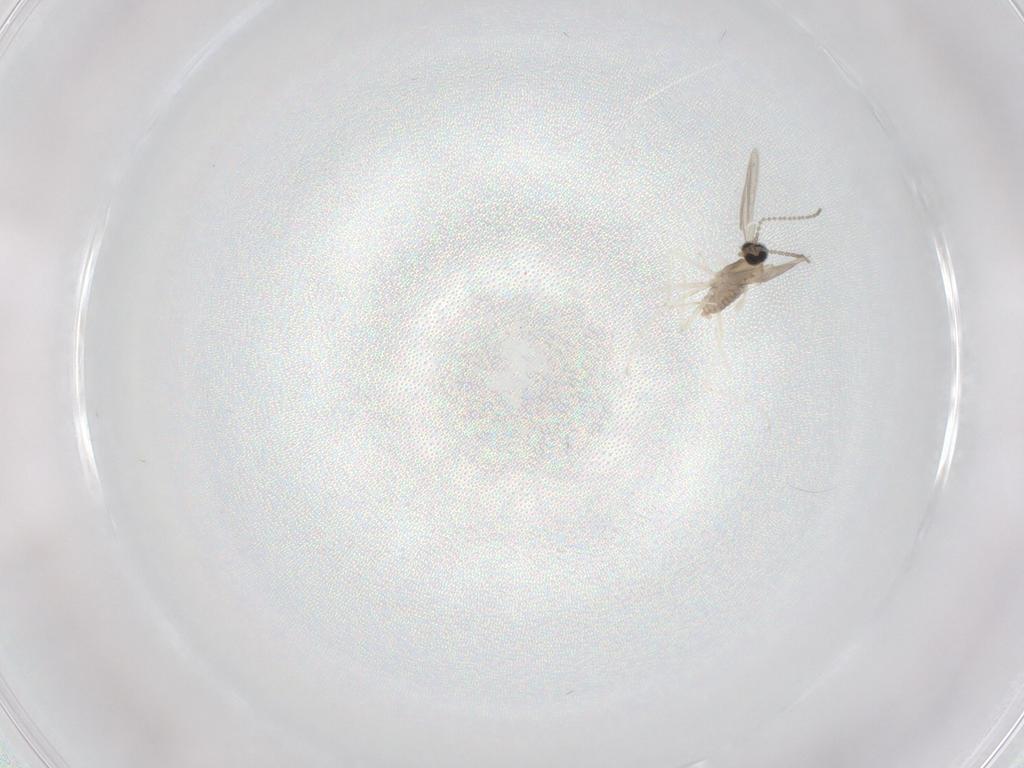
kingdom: Animalia
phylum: Arthropoda
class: Insecta
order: Diptera
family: Cecidomyiidae
